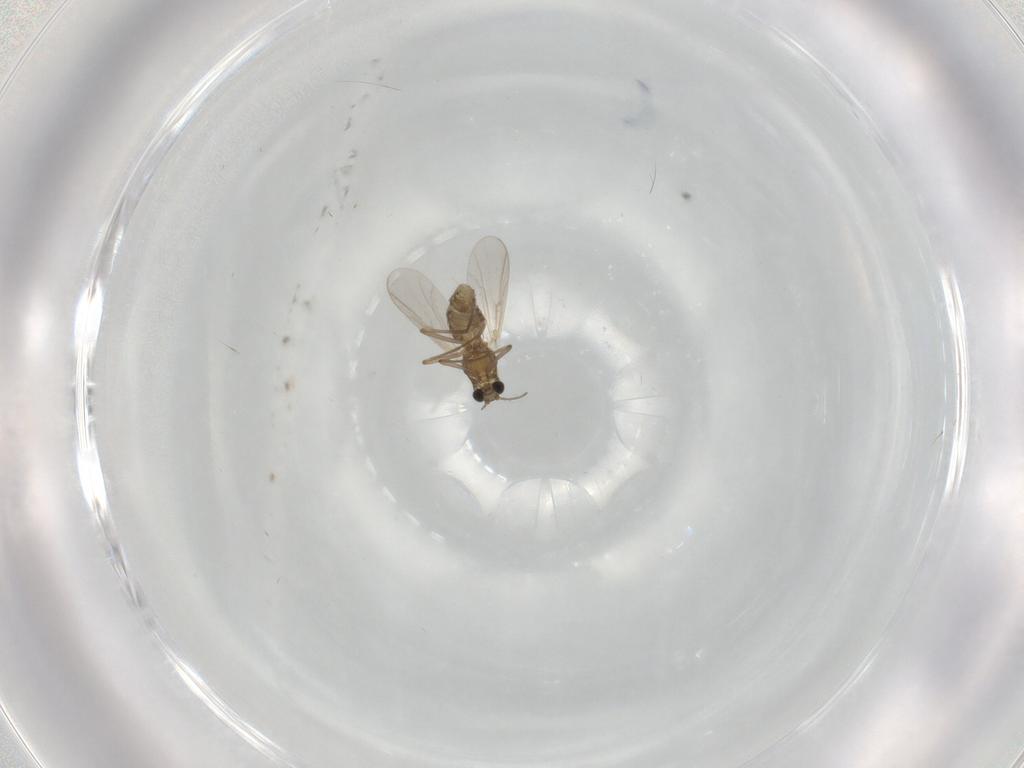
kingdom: Animalia
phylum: Arthropoda
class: Insecta
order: Diptera
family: Chironomidae
